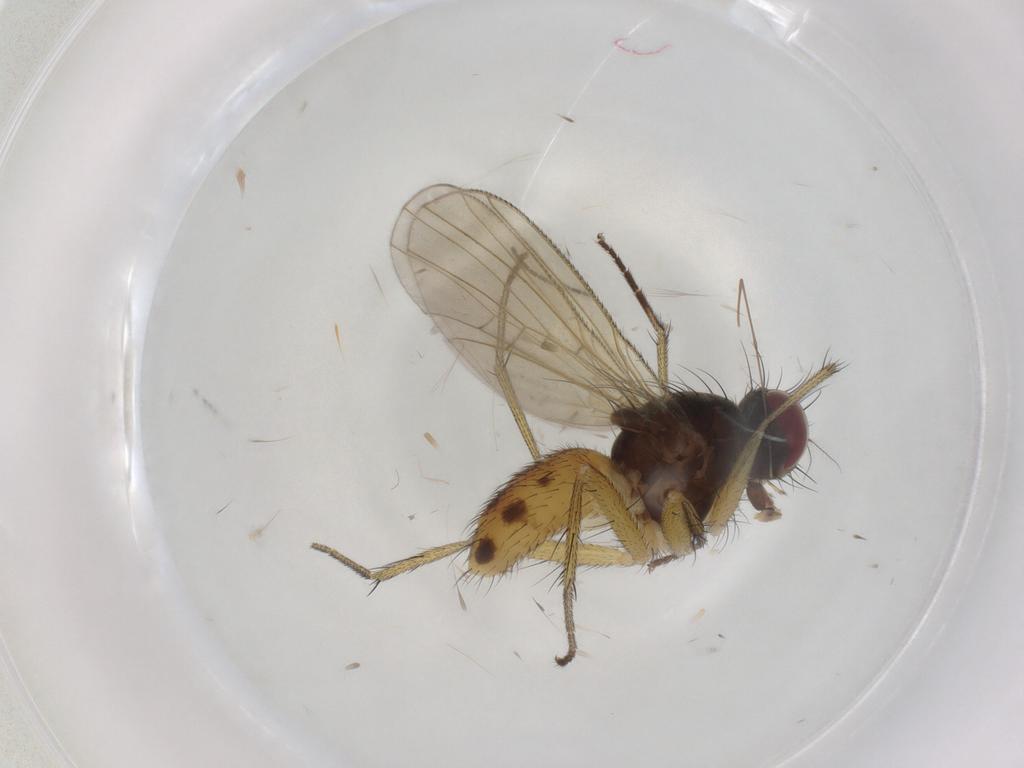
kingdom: Animalia
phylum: Arthropoda
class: Insecta
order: Diptera
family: Muscidae
